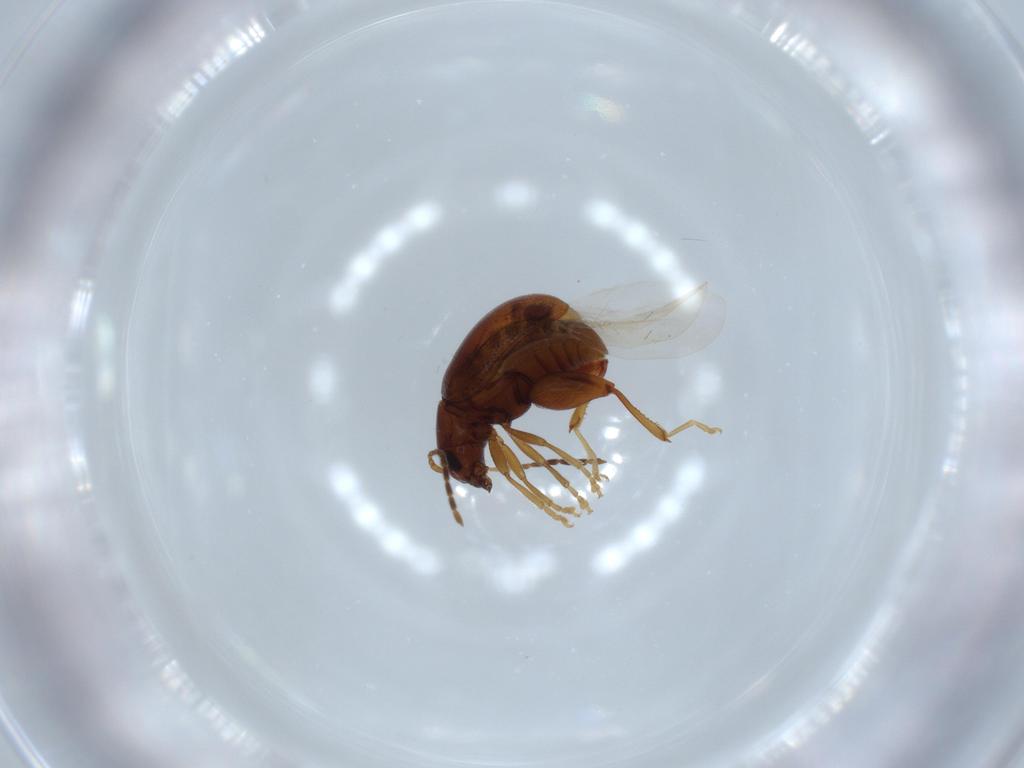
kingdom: Animalia
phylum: Arthropoda
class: Insecta
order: Coleoptera
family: Chrysomelidae
